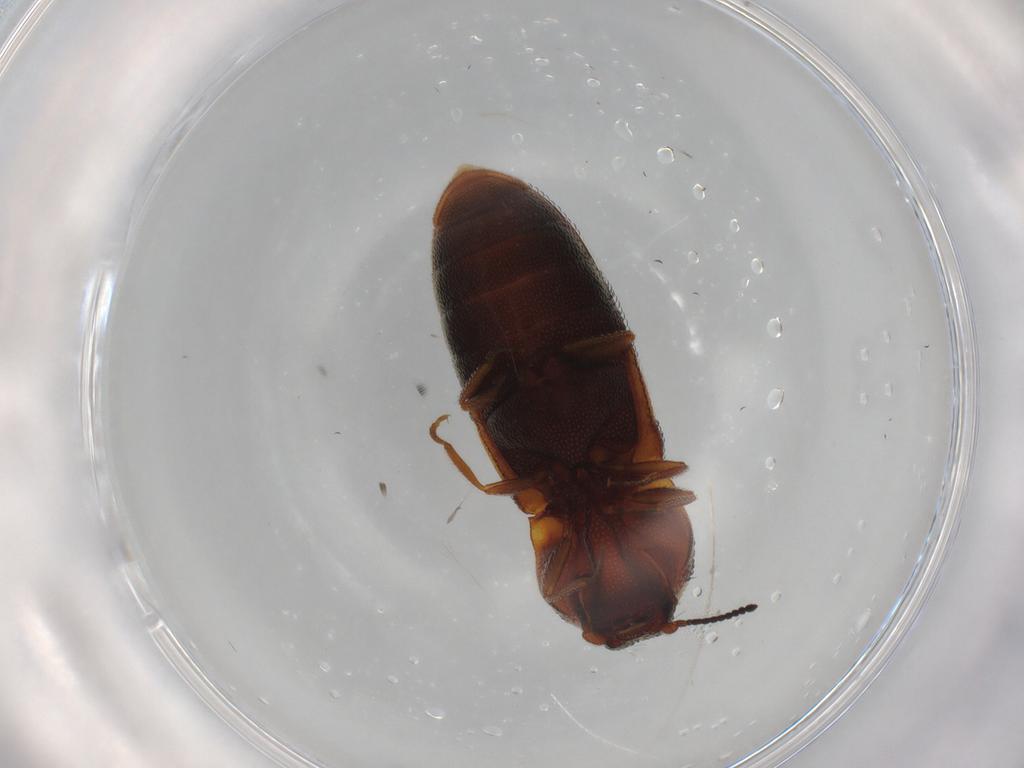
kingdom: Animalia
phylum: Arthropoda
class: Insecta
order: Coleoptera
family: Elateridae
